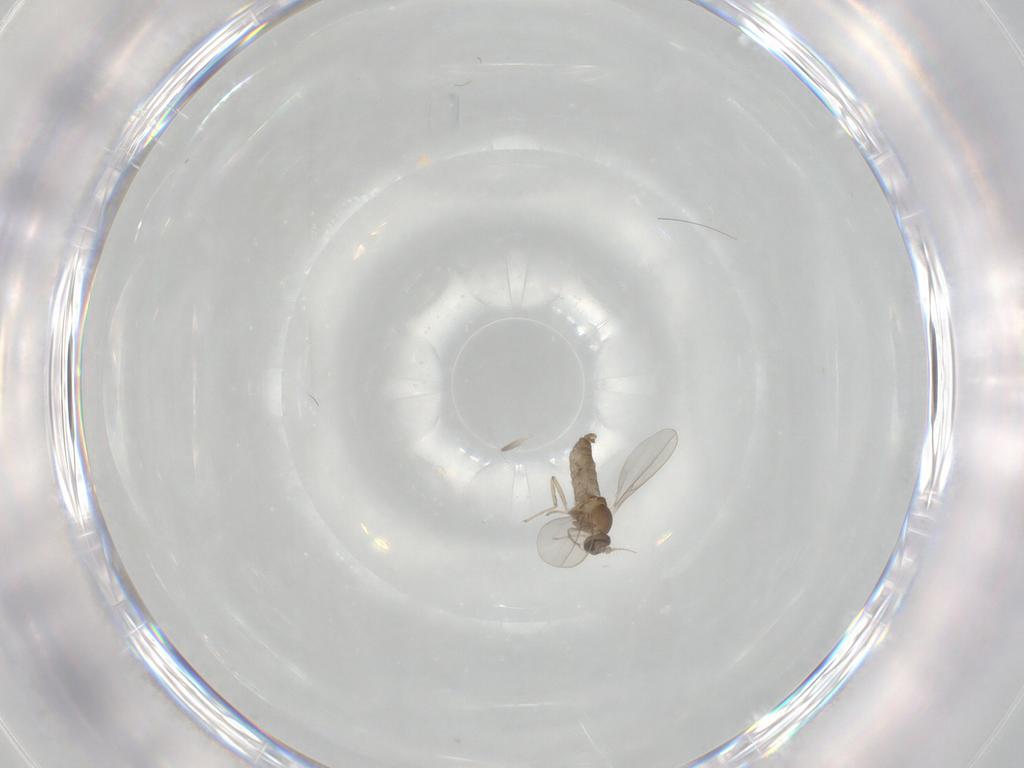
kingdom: Animalia
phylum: Arthropoda
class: Insecta
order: Diptera
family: Cecidomyiidae
